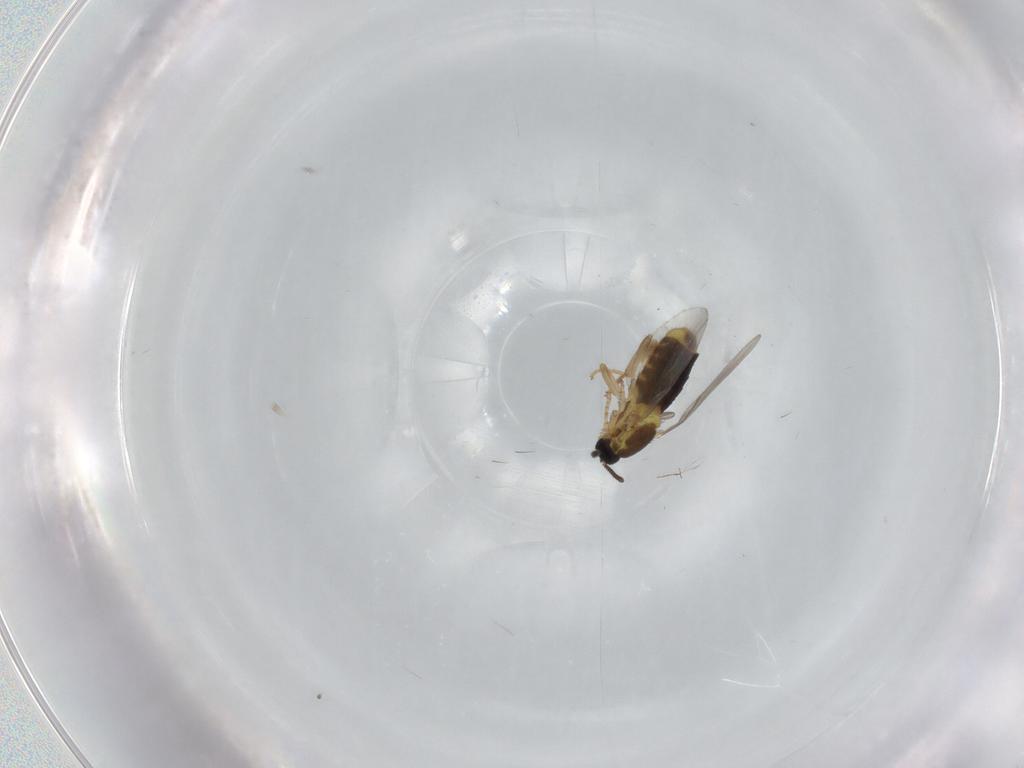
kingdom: Animalia
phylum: Arthropoda
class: Insecta
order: Diptera
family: Scatopsidae
